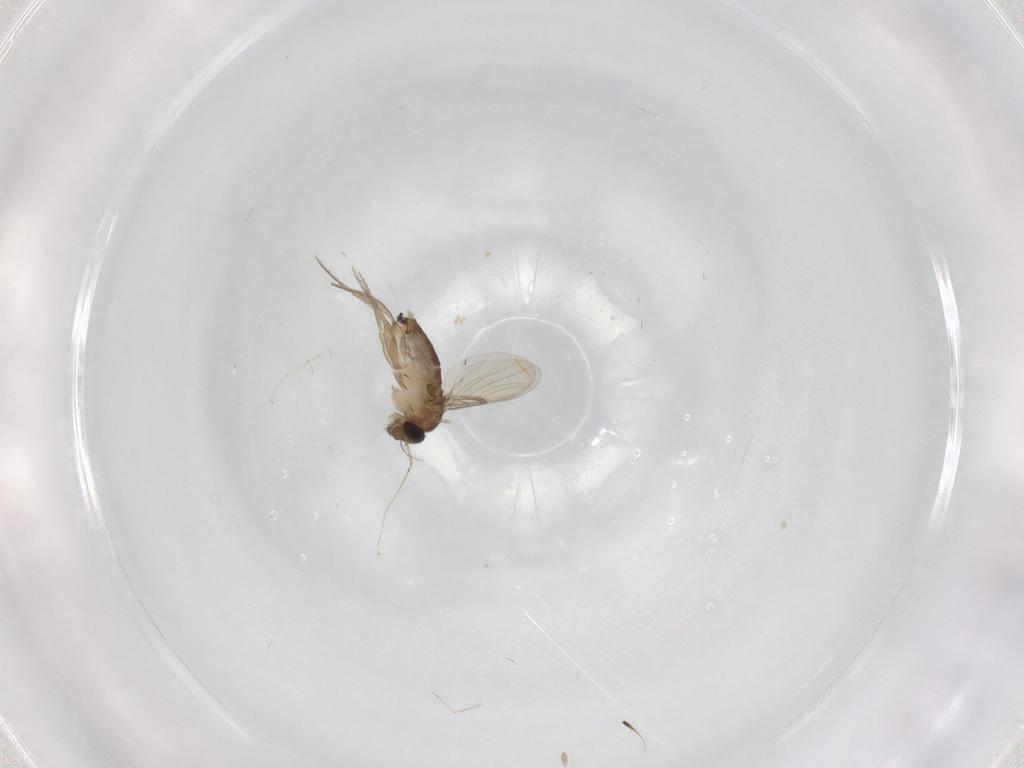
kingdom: Animalia
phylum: Arthropoda
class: Insecta
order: Diptera
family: Phoridae
